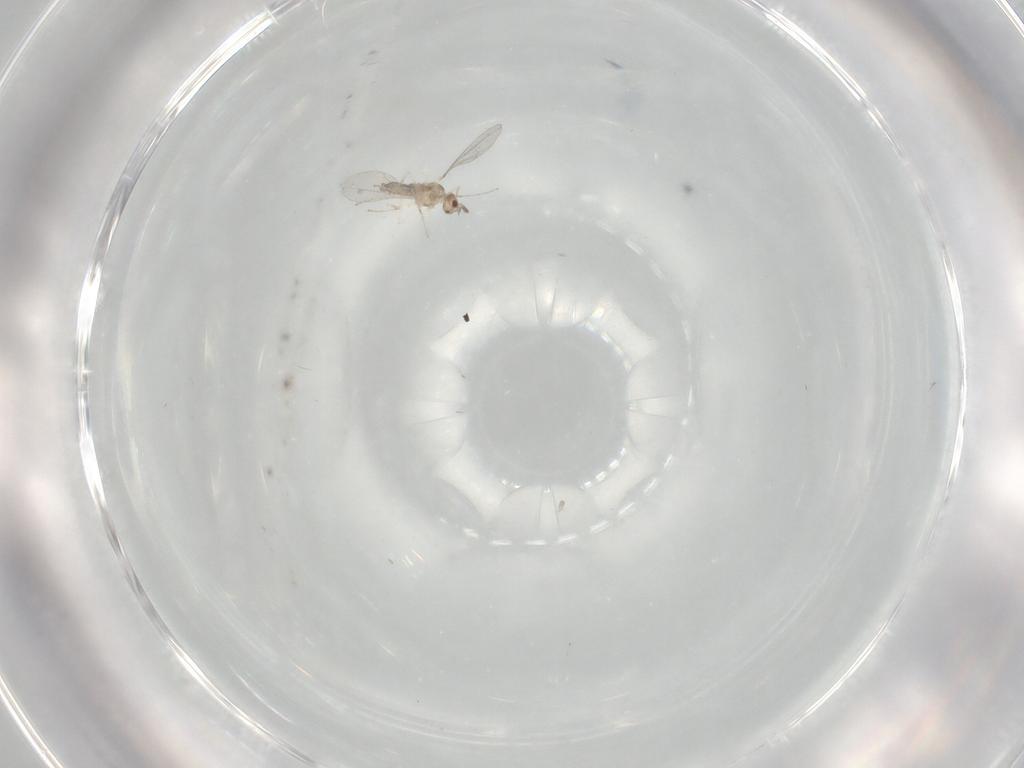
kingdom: Animalia
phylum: Arthropoda
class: Insecta
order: Diptera
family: Cecidomyiidae
